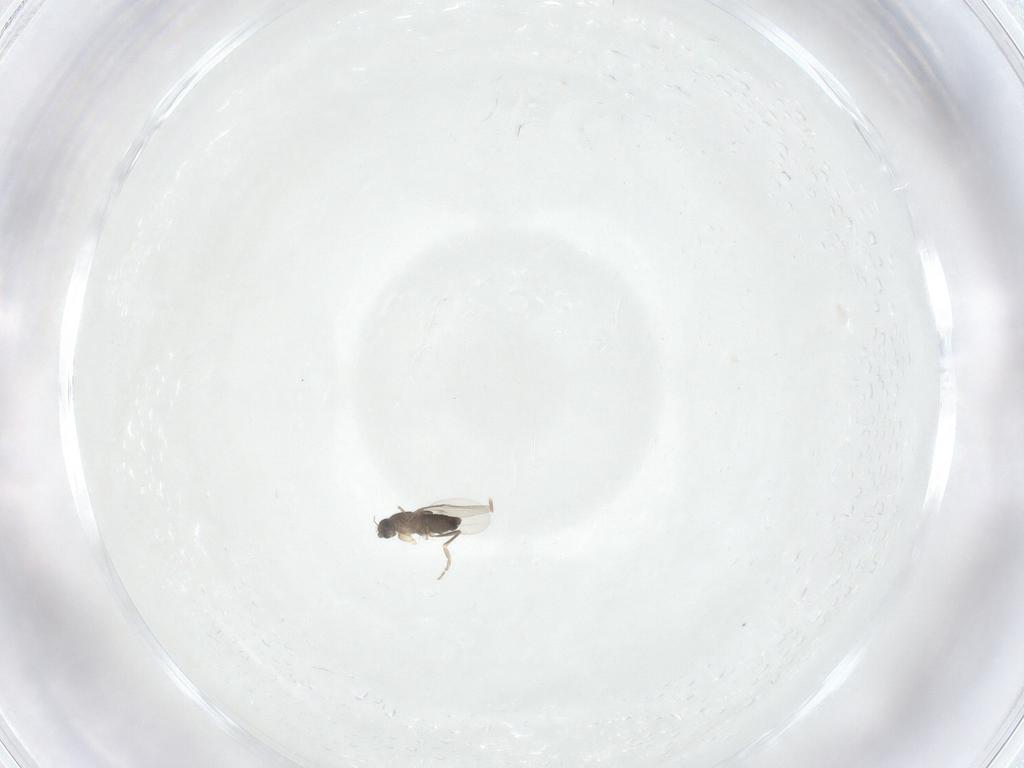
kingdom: Animalia
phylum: Arthropoda
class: Insecta
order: Diptera
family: Phoridae
